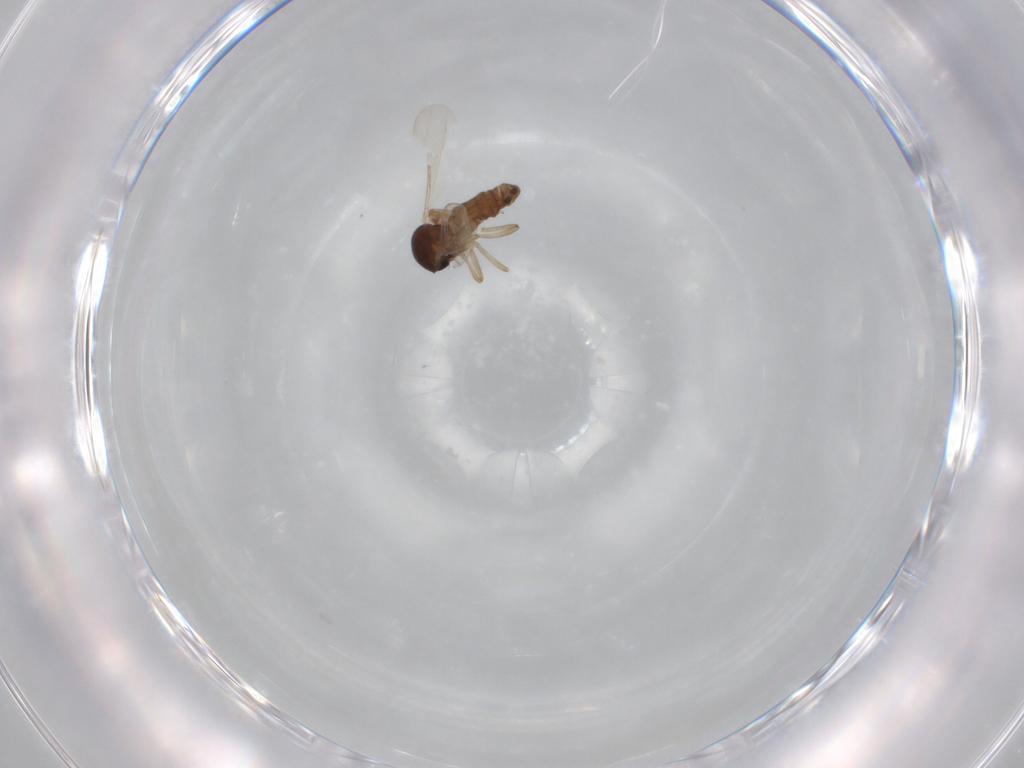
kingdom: Animalia
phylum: Arthropoda
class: Insecta
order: Diptera
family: Ceratopogonidae
